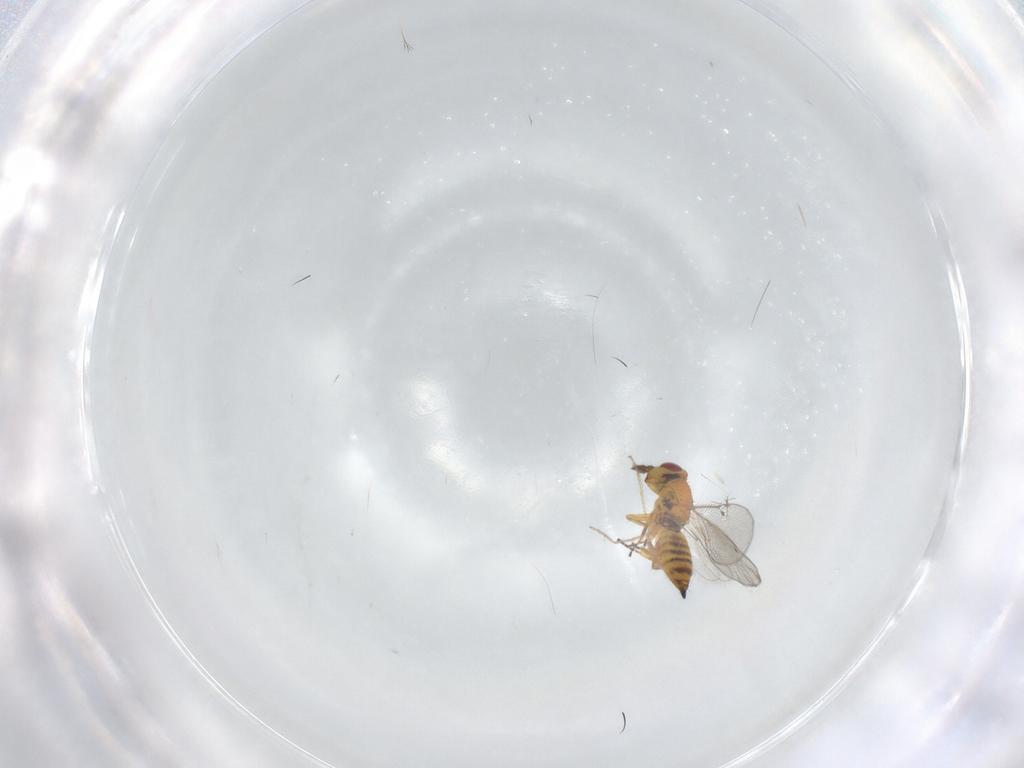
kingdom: Animalia
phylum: Arthropoda
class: Insecta
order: Hymenoptera
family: Eulophidae
